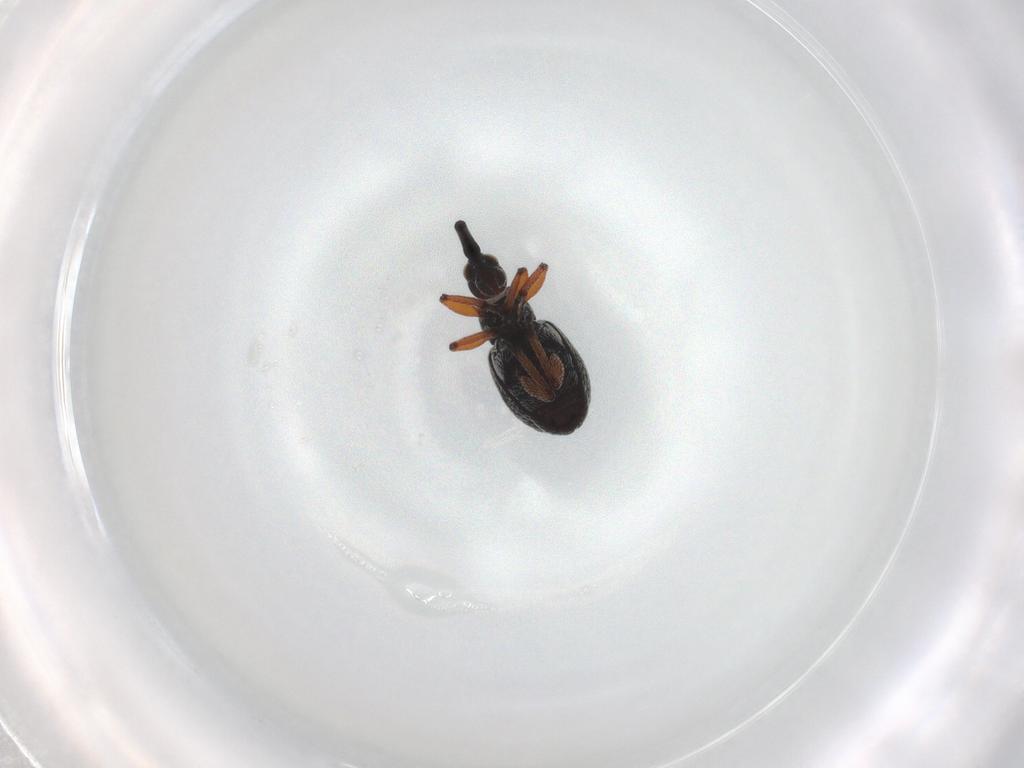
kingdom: Animalia
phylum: Arthropoda
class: Insecta
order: Coleoptera
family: Brentidae
